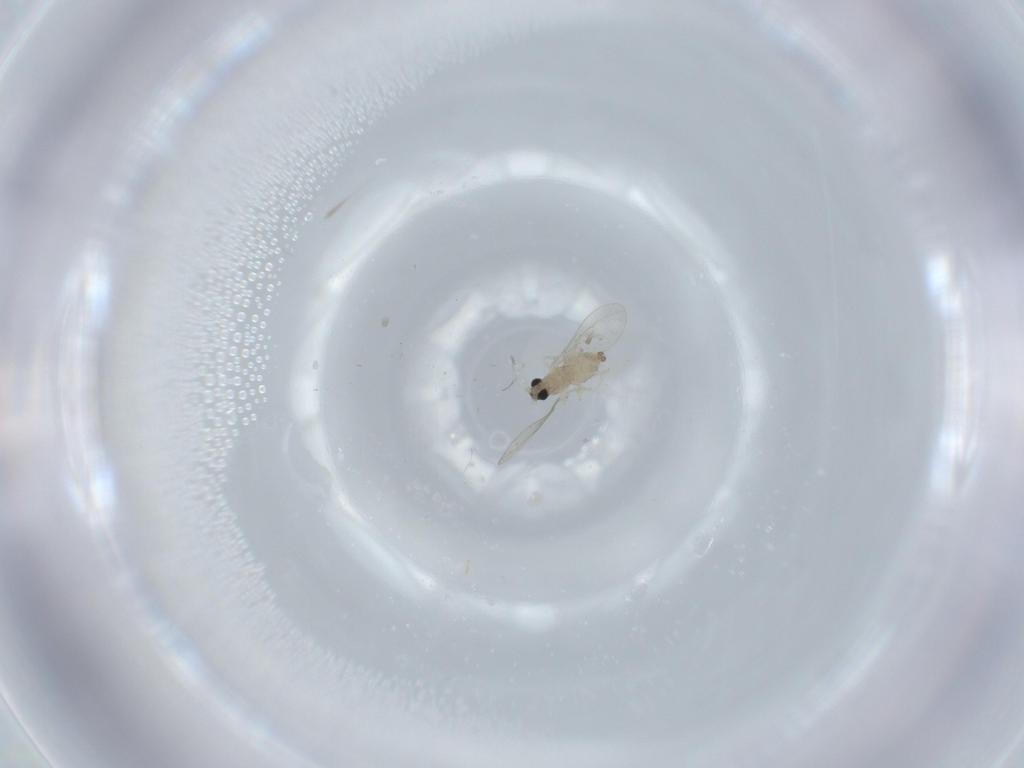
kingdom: Animalia
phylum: Arthropoda
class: Insecta
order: Diptera
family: Cecidomyiidae
